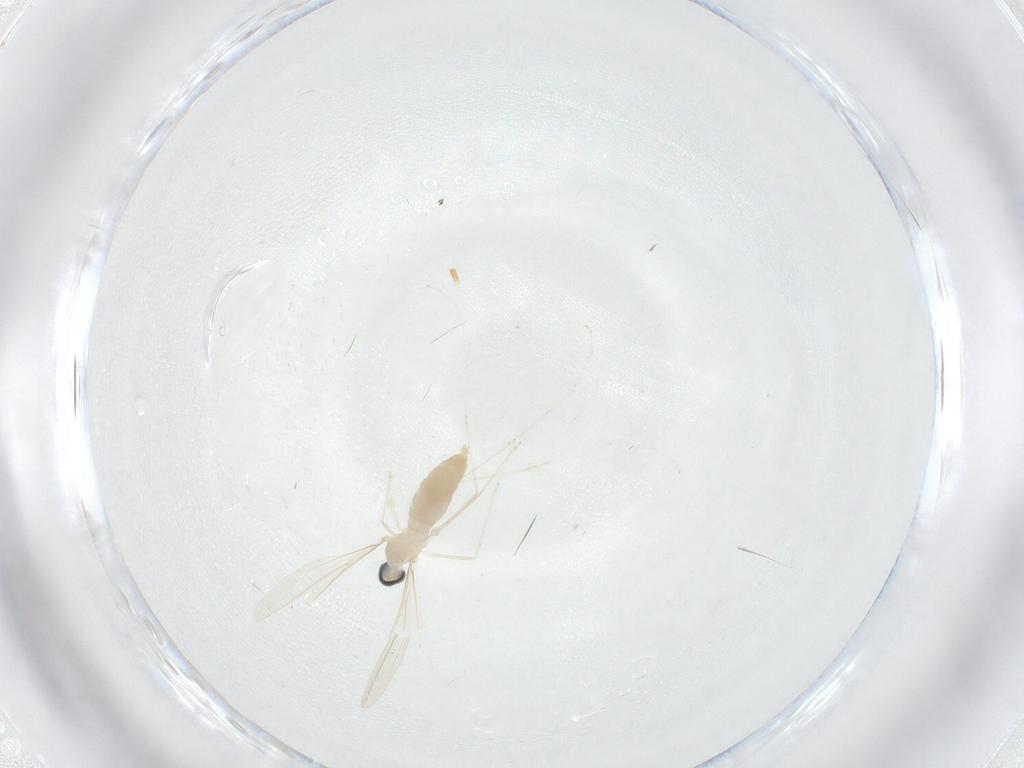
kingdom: Animalia
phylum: Arthropoda
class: Insecta
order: Diptera
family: Cecidomyiidae
